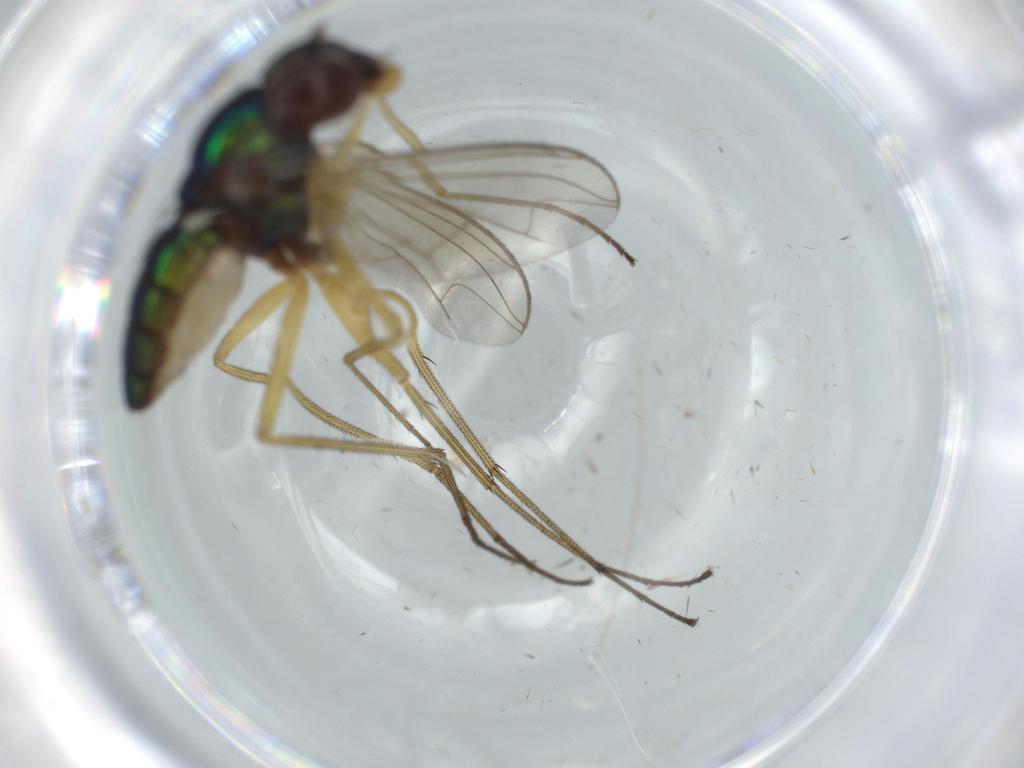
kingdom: Animalia
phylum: Arthropoda
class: Insecta
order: Diptera
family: Dolichopodidae
